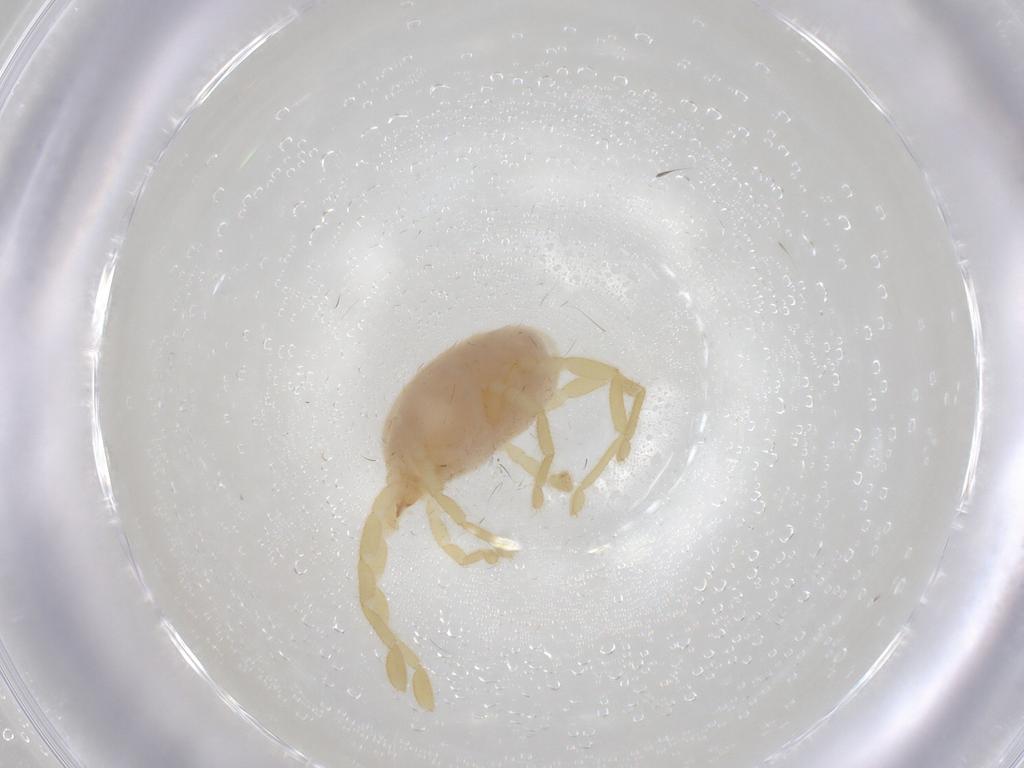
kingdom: Animalia
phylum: Arthropoda
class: Arachnida
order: Trombidiformes
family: Erythraeidae
